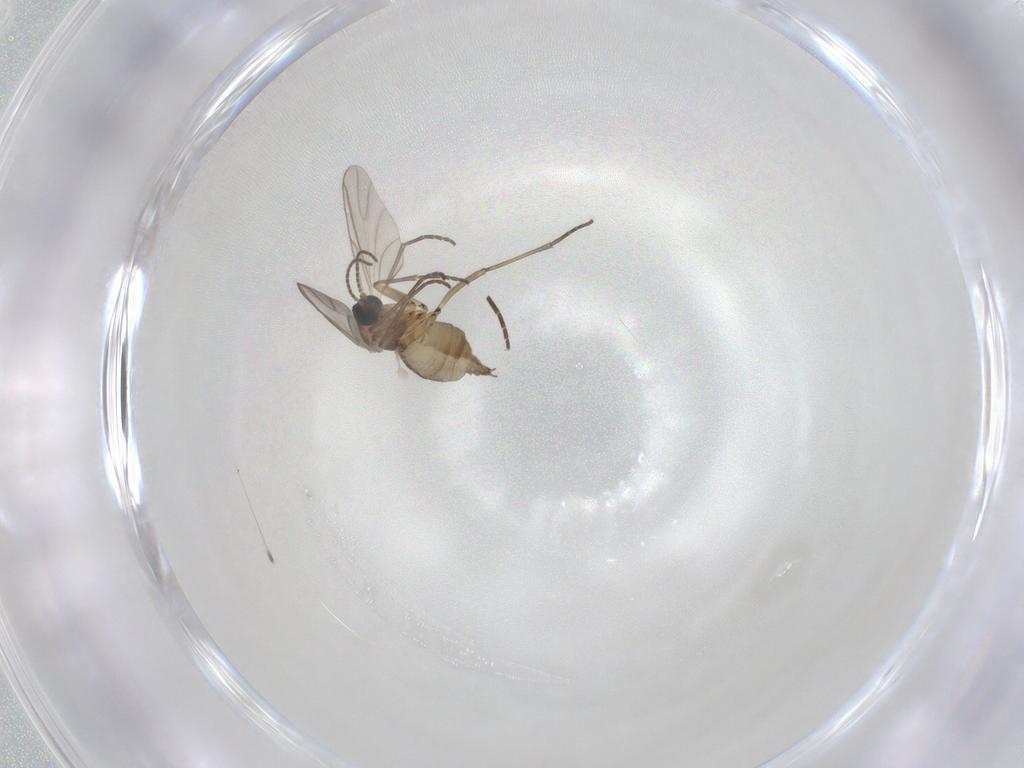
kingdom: Animalia
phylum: Arthropoda
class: Insecta
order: Diptera
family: Sciaridae
